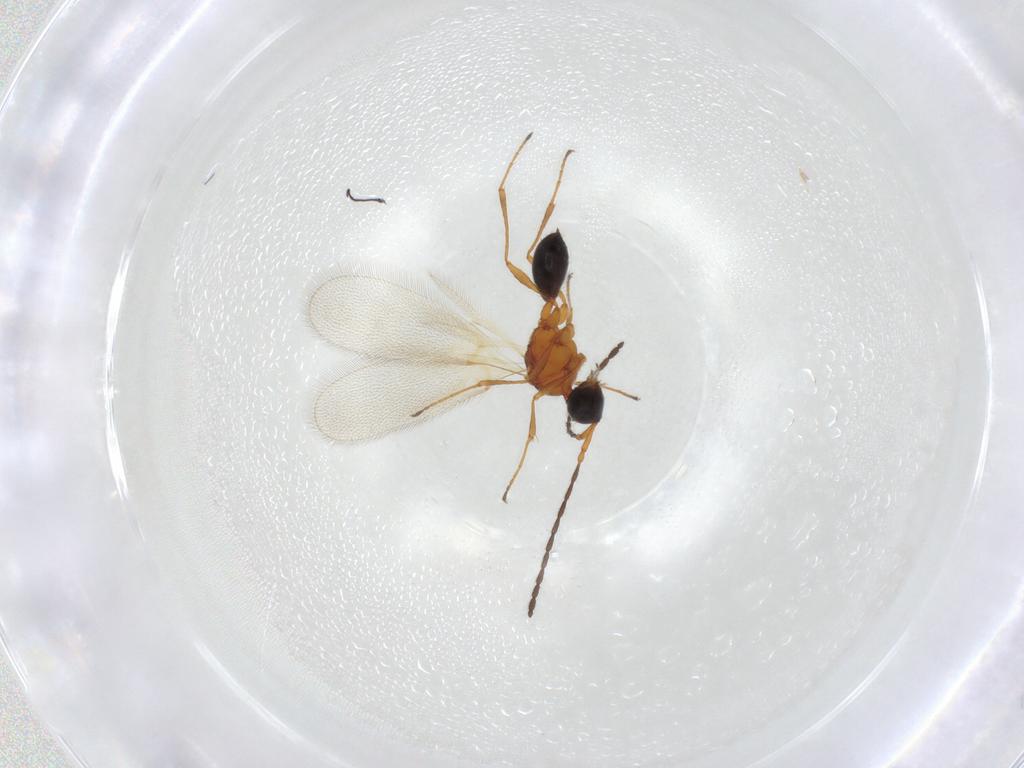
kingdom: Animalia
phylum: Arthropoda
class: Insecta
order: Hymenoptera
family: Diapriidae
